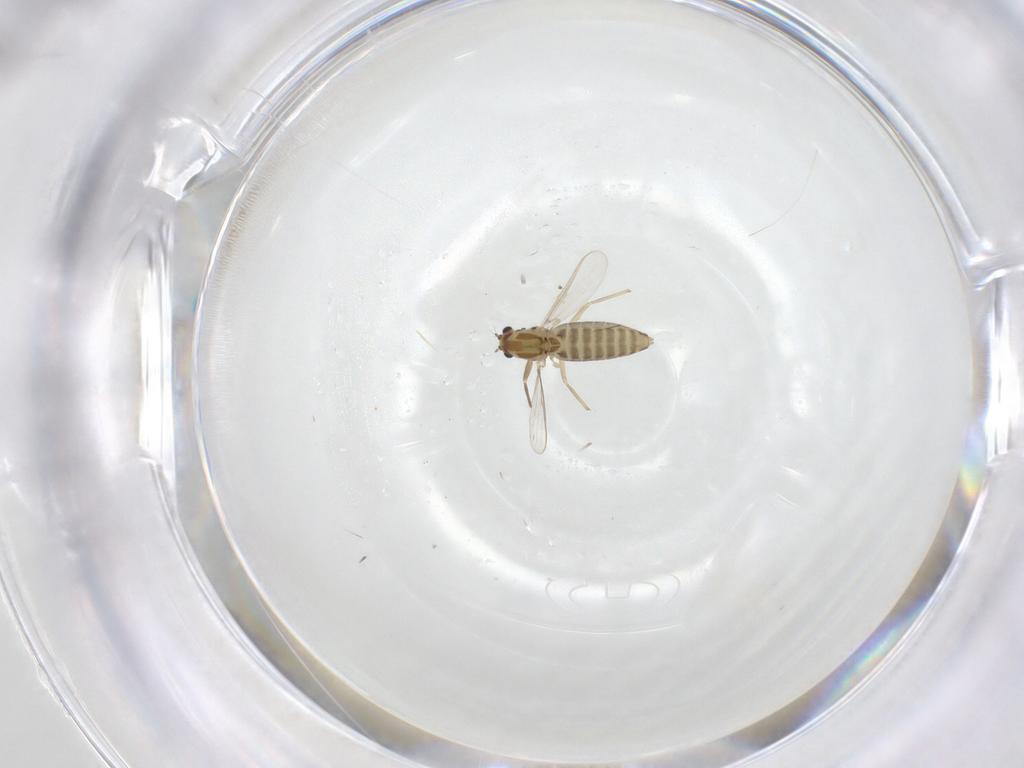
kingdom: Animalia
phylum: Arthropoda
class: Insecta
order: Diptera
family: Chironomidae
